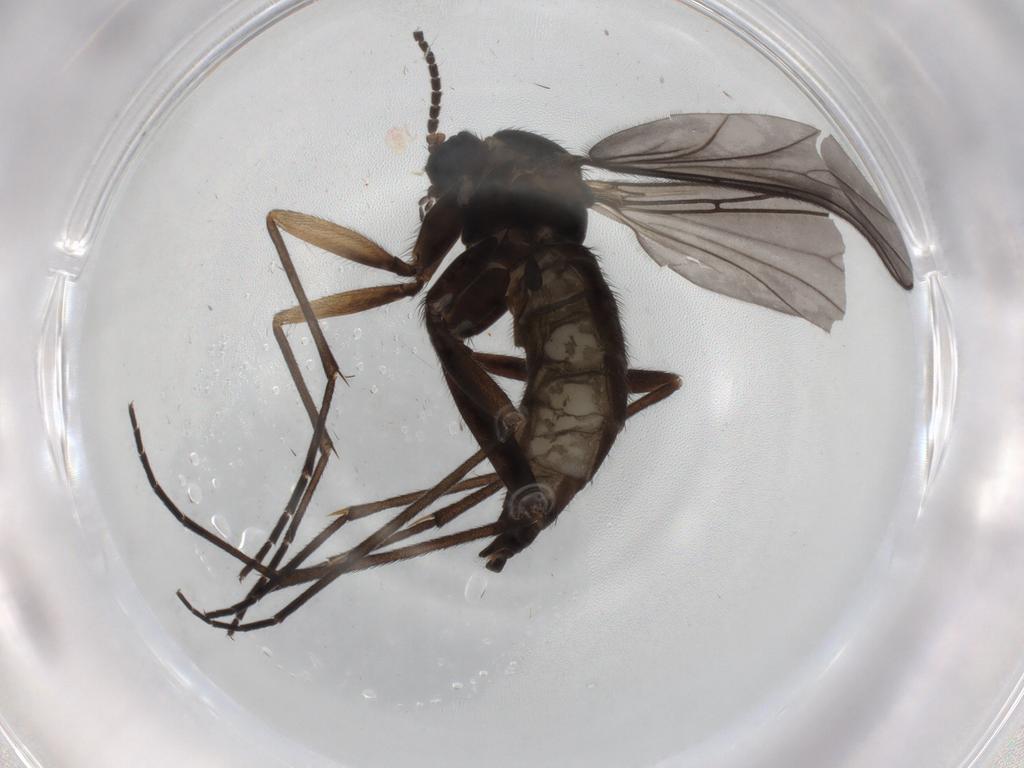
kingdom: Animalia
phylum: Arthropoda
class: Insecta
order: Diptera
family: Sciaridae
